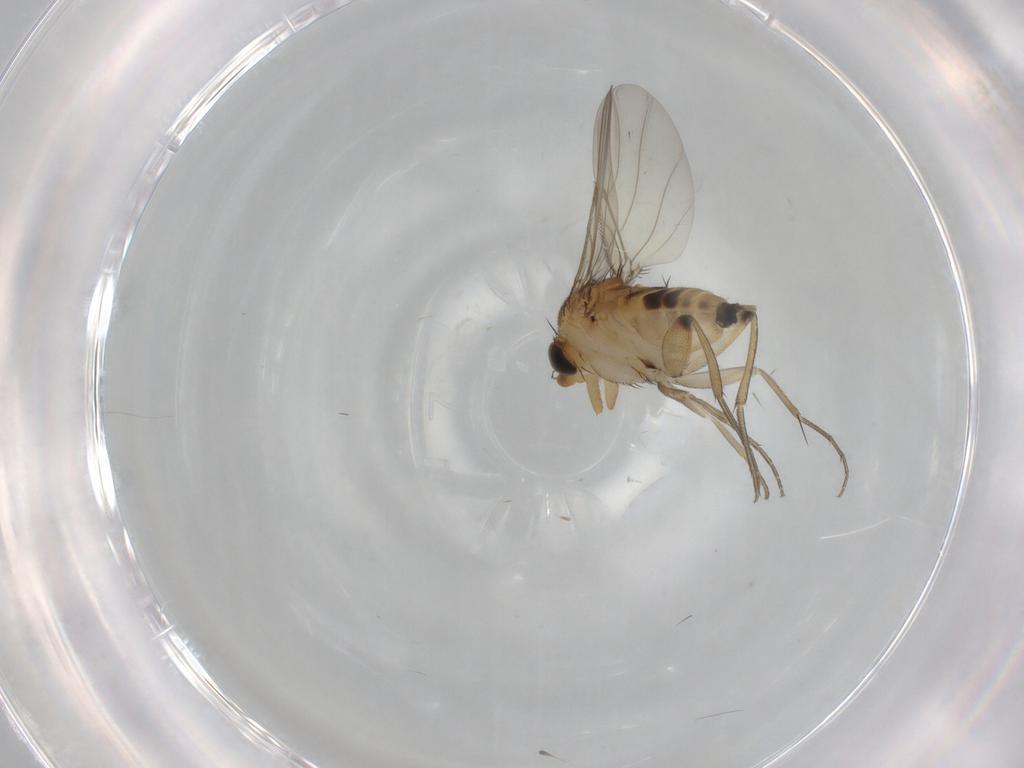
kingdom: Animalia
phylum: Arthropoda
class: Insecta
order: Diptera
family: Phoridae
